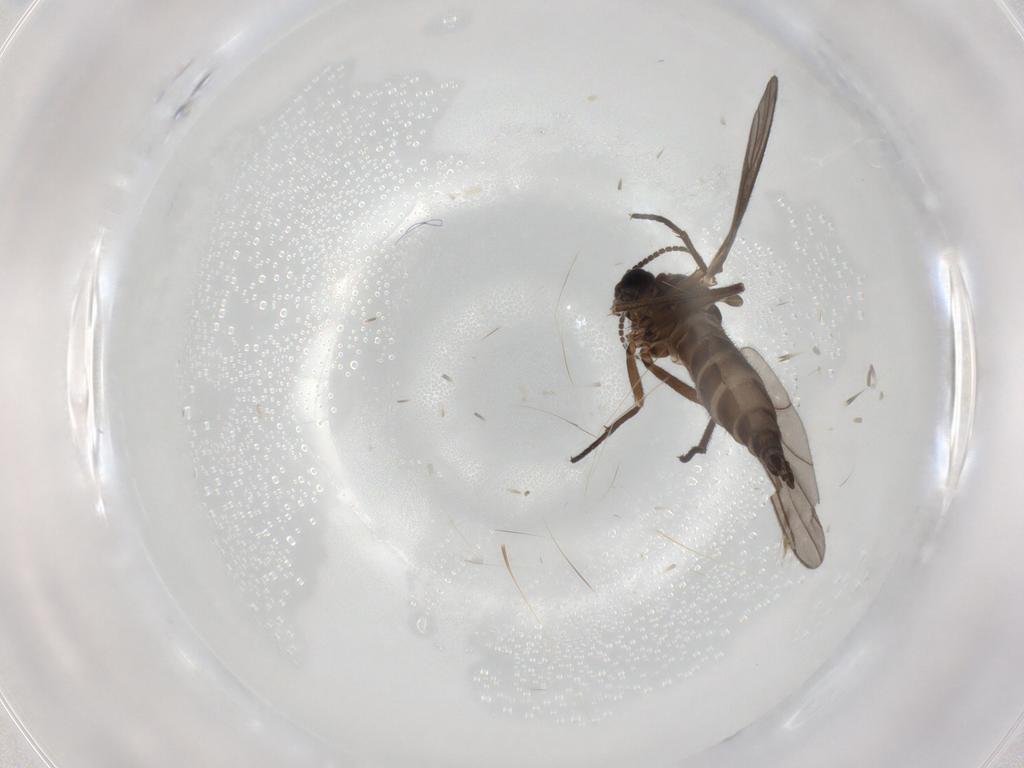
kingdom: Animalia
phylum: Arthropoda
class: Insecta
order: Diptera
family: Sciaridae
